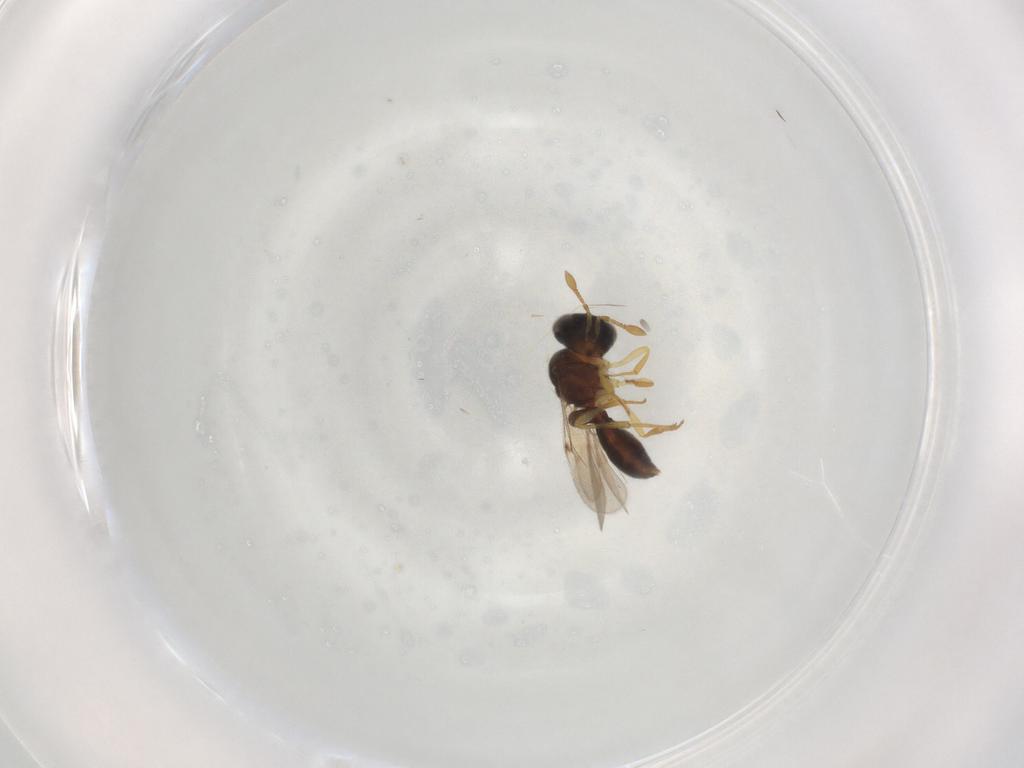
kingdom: Animalia
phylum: Arthropoda
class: Insecta
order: Hymenoptera
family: Scelionidae
